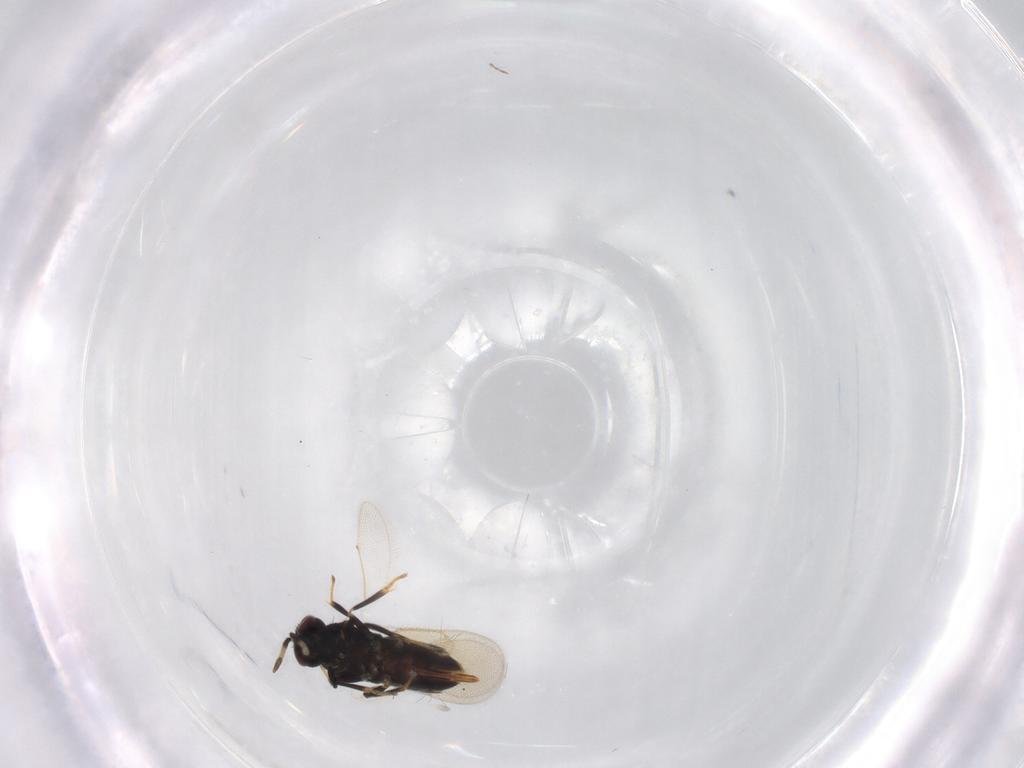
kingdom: Animalia
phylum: Arthropoda
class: Insecta
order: Hymenoptera
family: Aphelinidae
